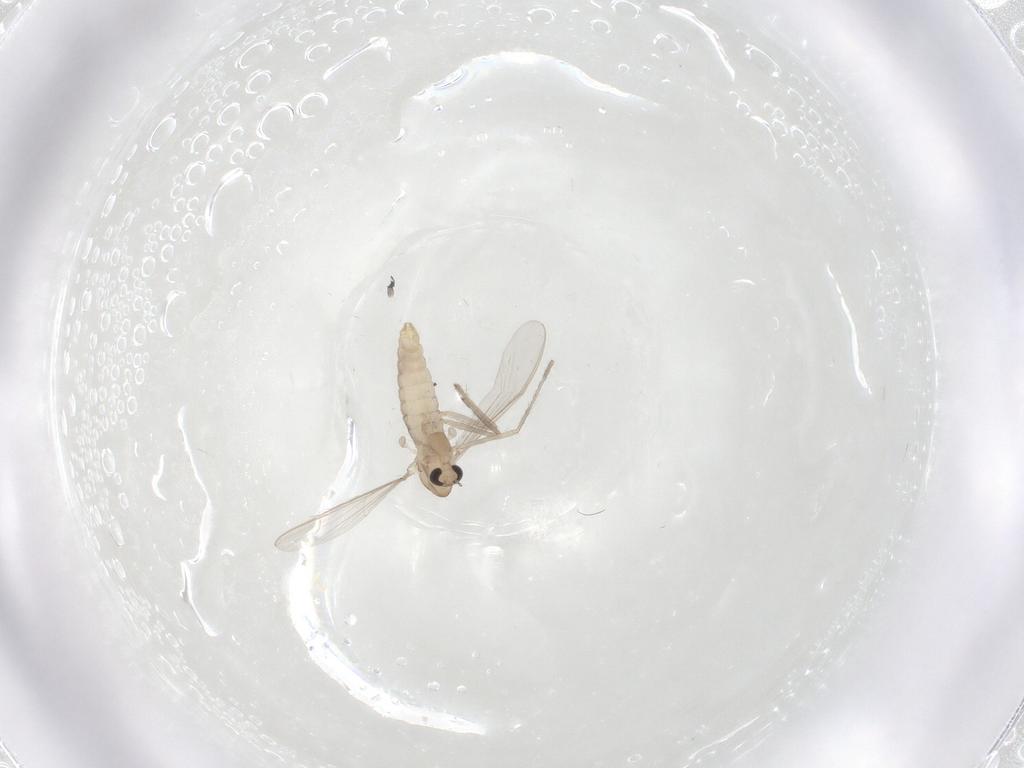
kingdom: Animalia
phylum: Arthropoda
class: Insecta
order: Diptera
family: Chironomidae
